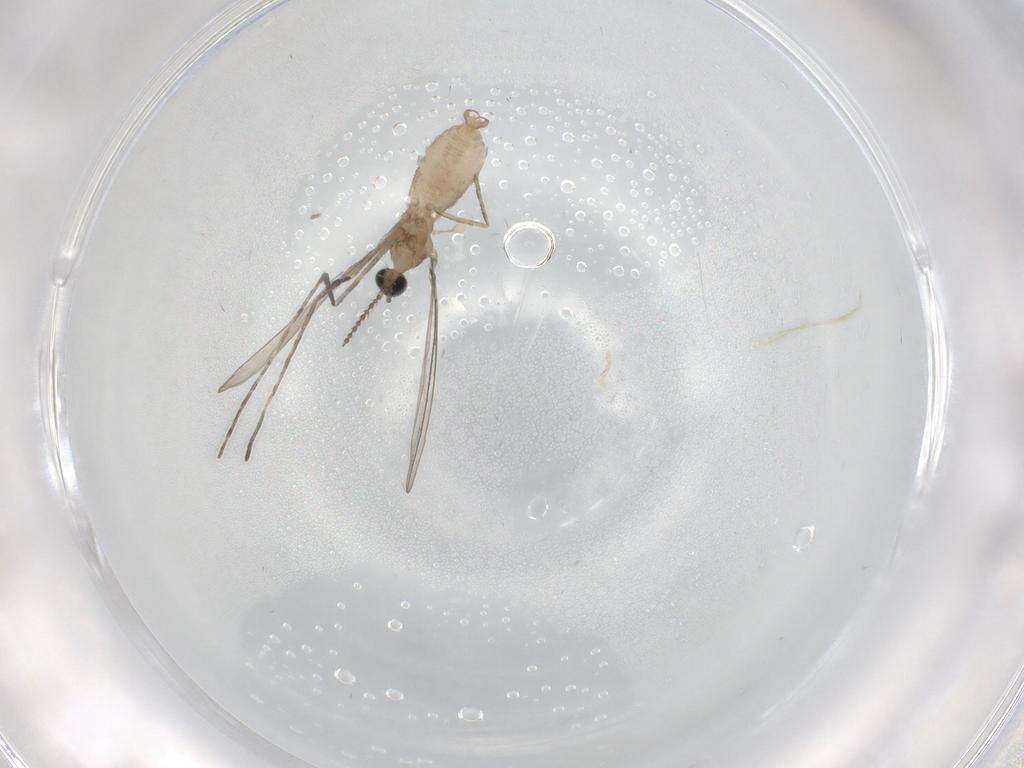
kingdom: Animalia
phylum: Arthropoda
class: Insecta
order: Diptera
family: Cecidomyiidae
